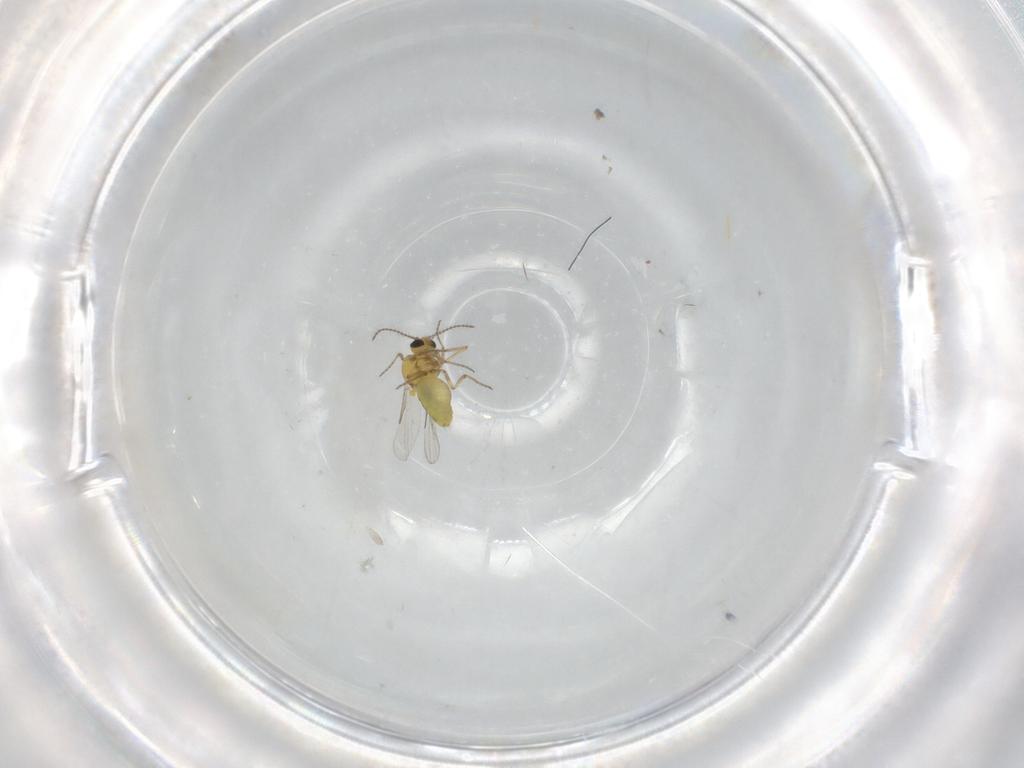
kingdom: Animalia
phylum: Arthropoda
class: Insecta
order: Diptera
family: Ceratopogonidae
